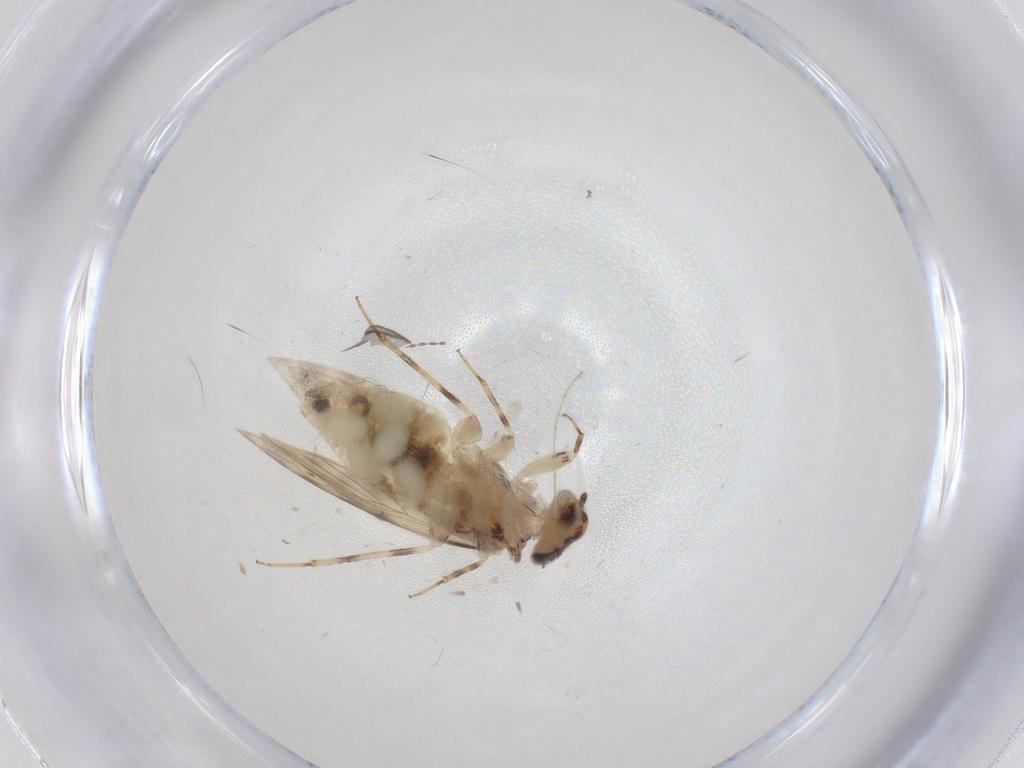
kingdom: Animalia
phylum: Arthropoda
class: Insecta
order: Psocodea
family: Lepidopsocidae
